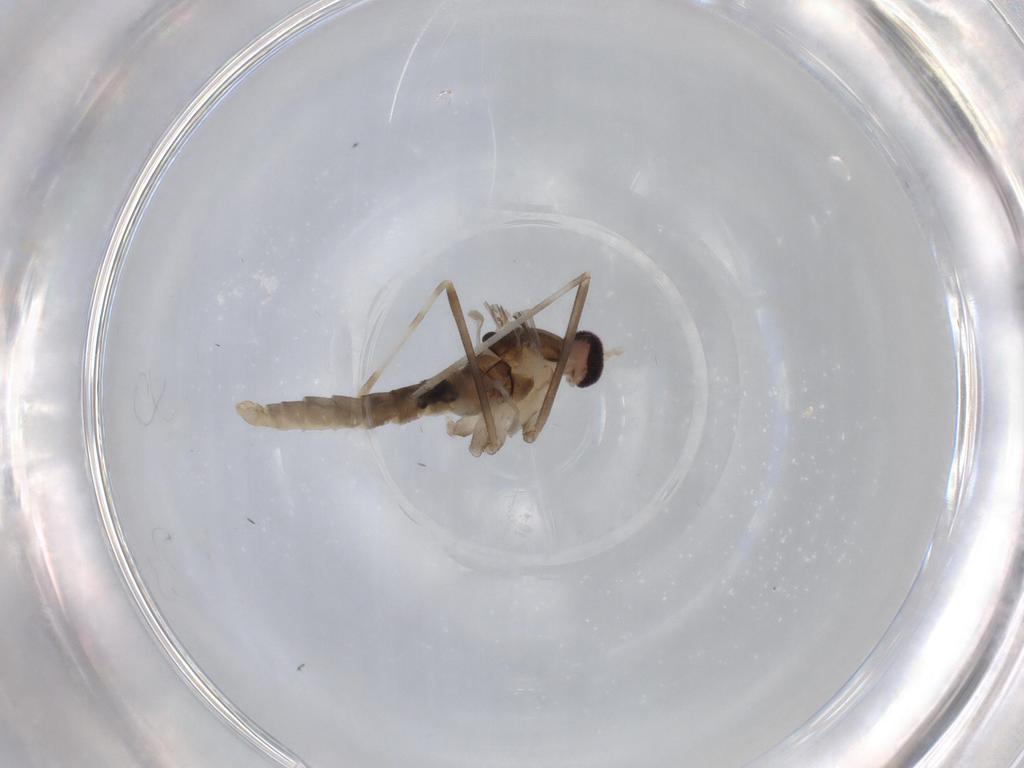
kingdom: Animalia
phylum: Arthropoda
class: Insecta
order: Diptera
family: Cecidomyiidae
